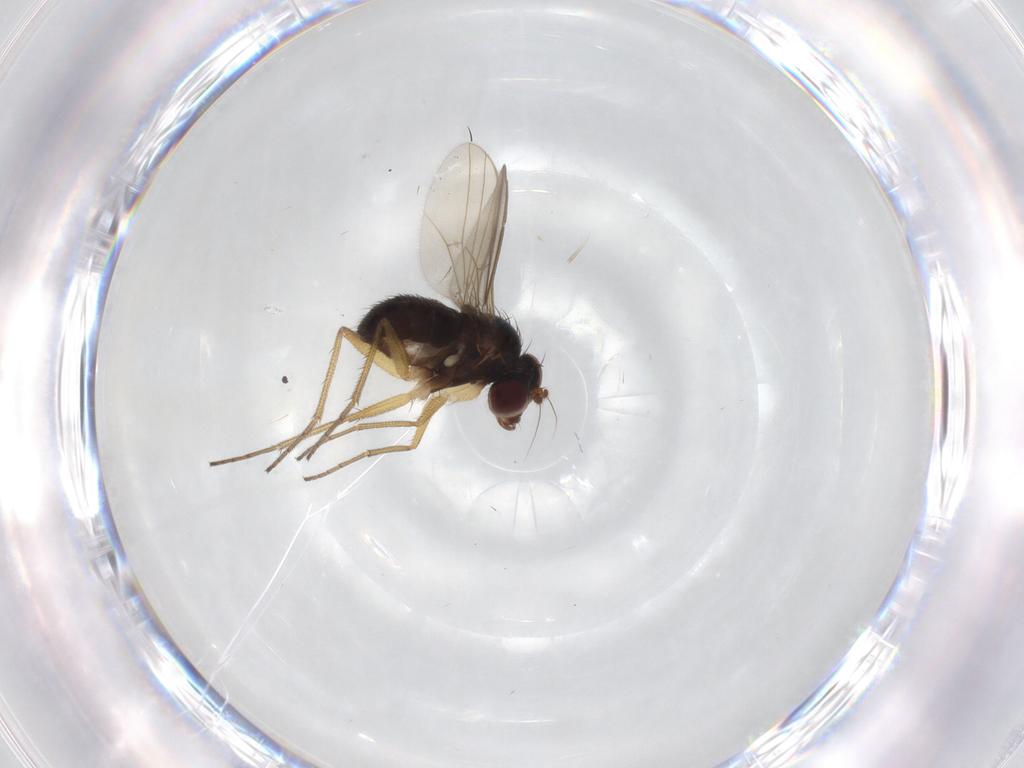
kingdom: Animalia
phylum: Arthropoda
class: Insecta
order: Diptera
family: Dolichopodidae
